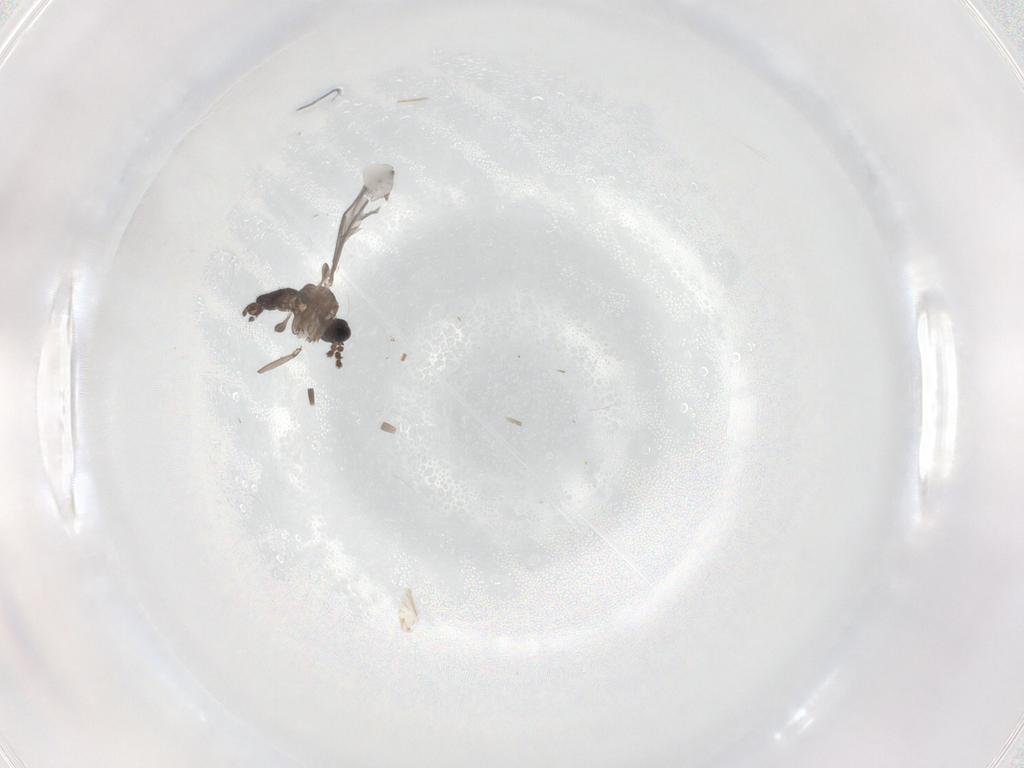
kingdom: Animalia
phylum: Arthropoda
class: Insecta
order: Diptera
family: Chironomidae
